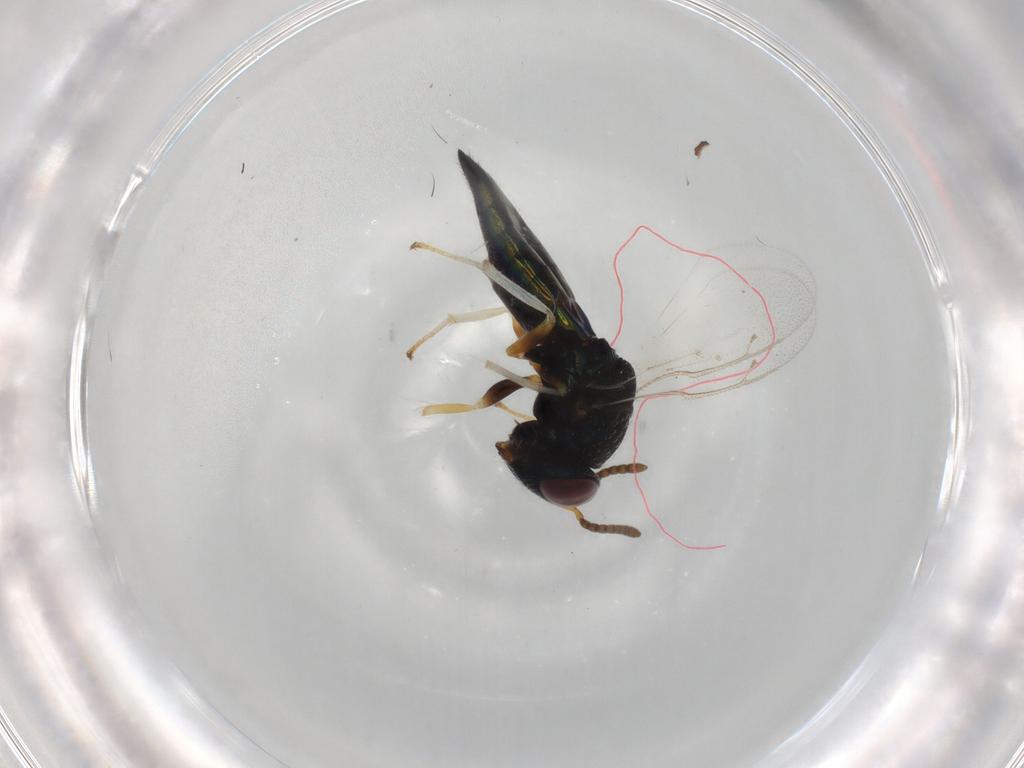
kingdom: Animalia
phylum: Arthropoda
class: Insecta
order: Hymenoptera
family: Pteromalidae
